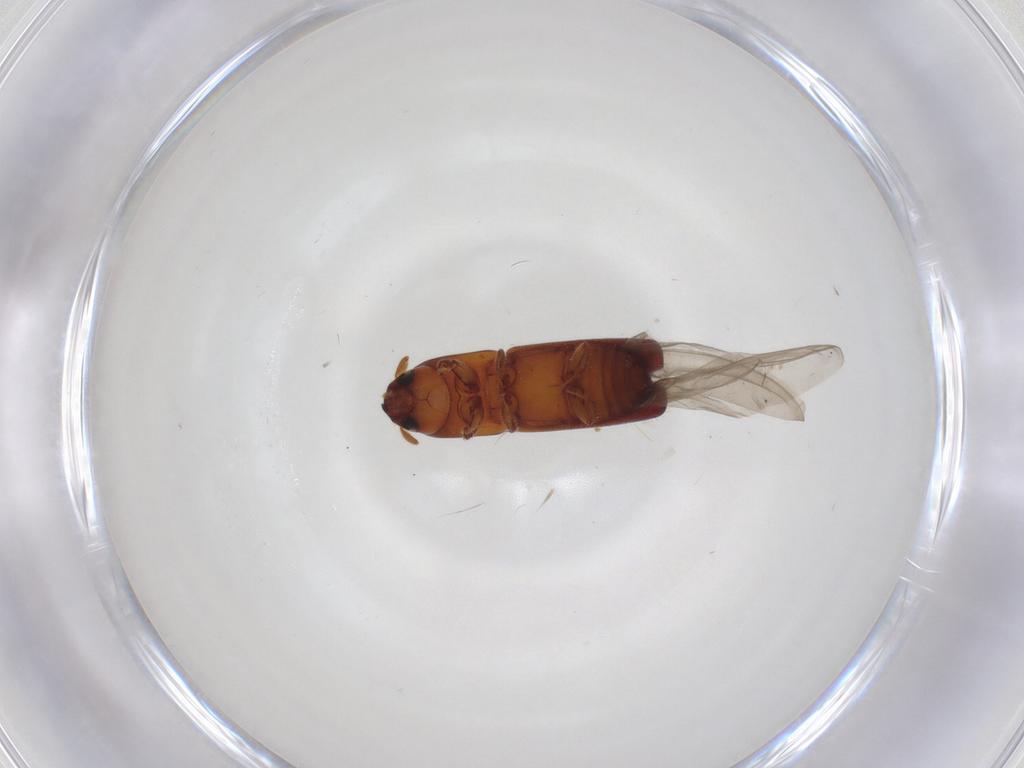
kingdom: Animalia
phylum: Arthropoda
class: Insecta
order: Coleoptera
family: Curculionidae
